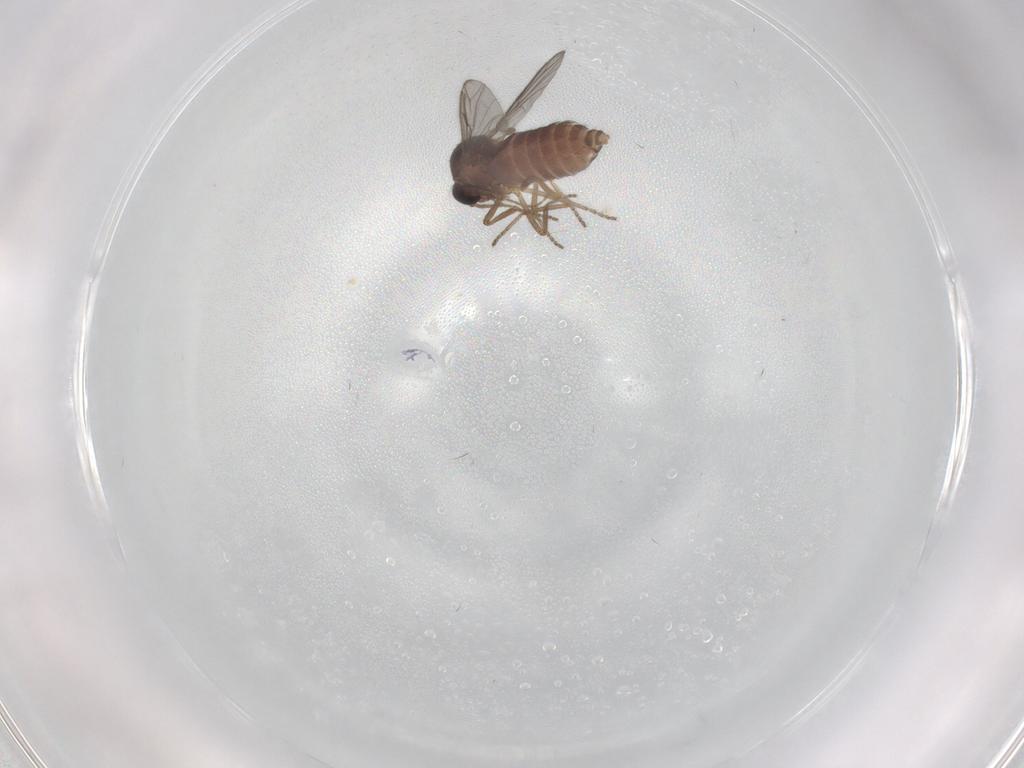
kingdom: Animalia
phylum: Arthropoda
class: Insecta
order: Diptera
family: Ceratopogonidae
